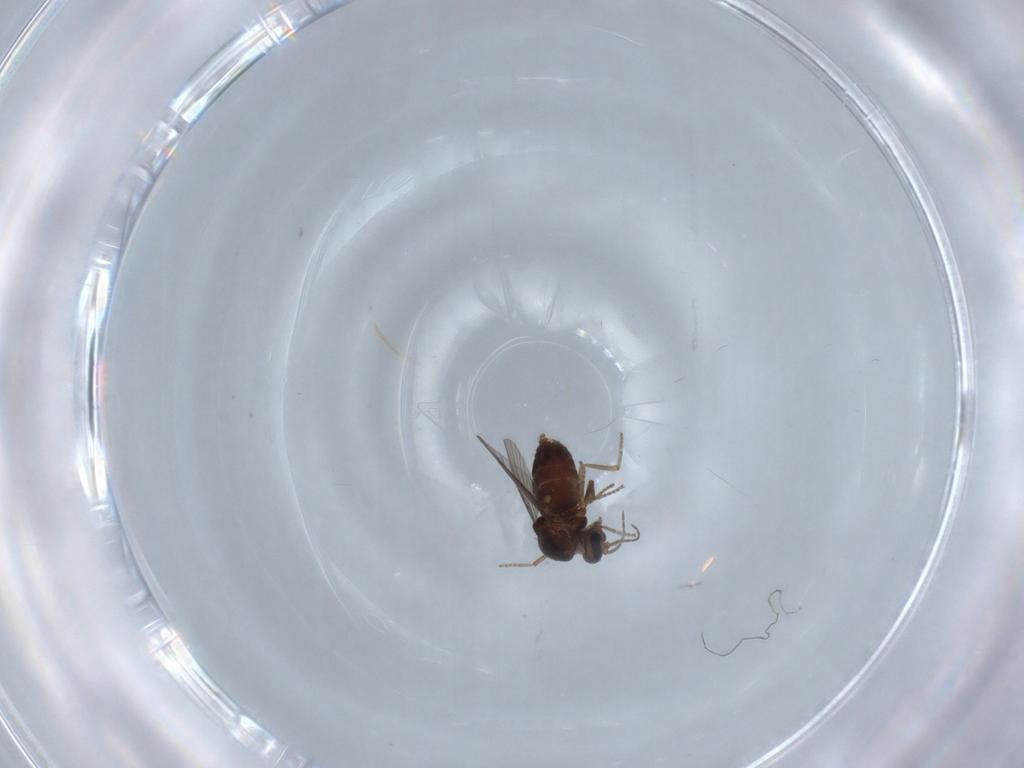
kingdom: Animalia
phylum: Arthropoda
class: Insecta
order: Diptera
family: Ceratopogonidae
